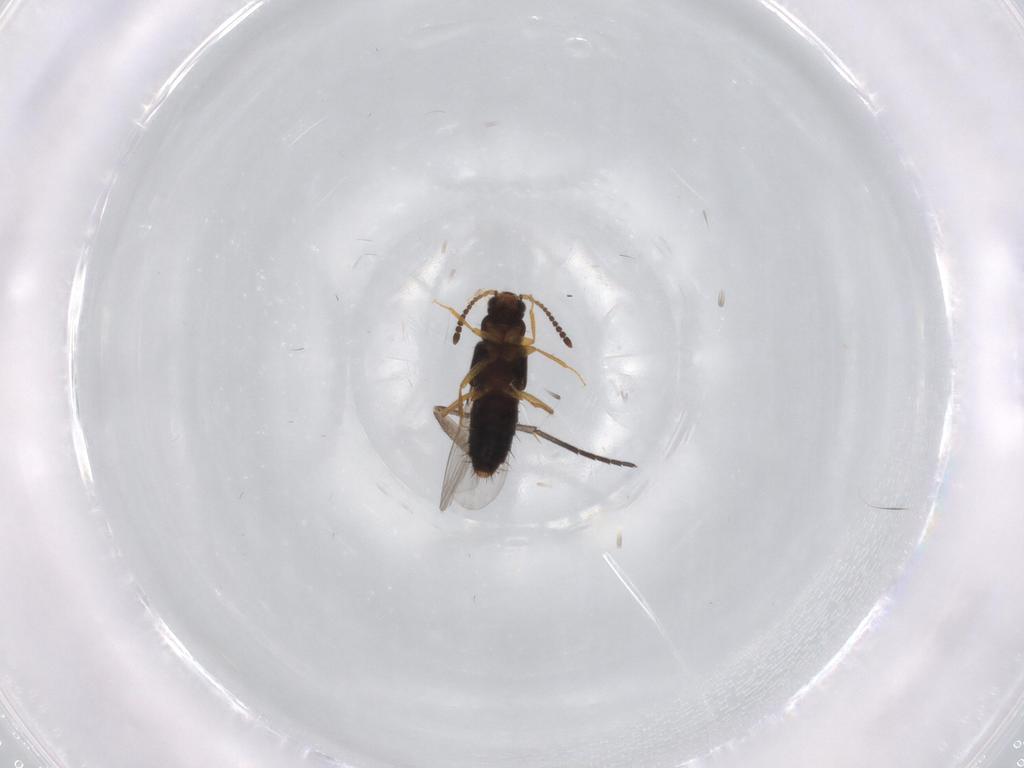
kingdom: Animalia
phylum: Arthropoda
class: Insecta
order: Coleoptera
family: Staphylinidae
